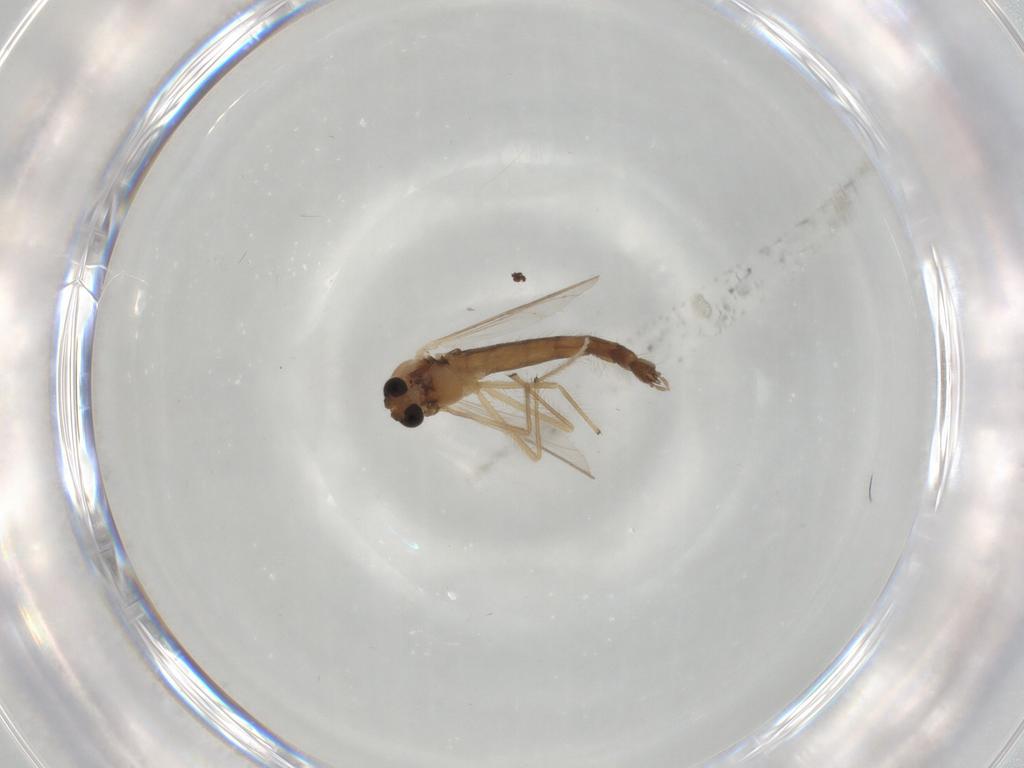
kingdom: Animalia
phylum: Arthropoda
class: Insecta
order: Diptera
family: Chironomidae
